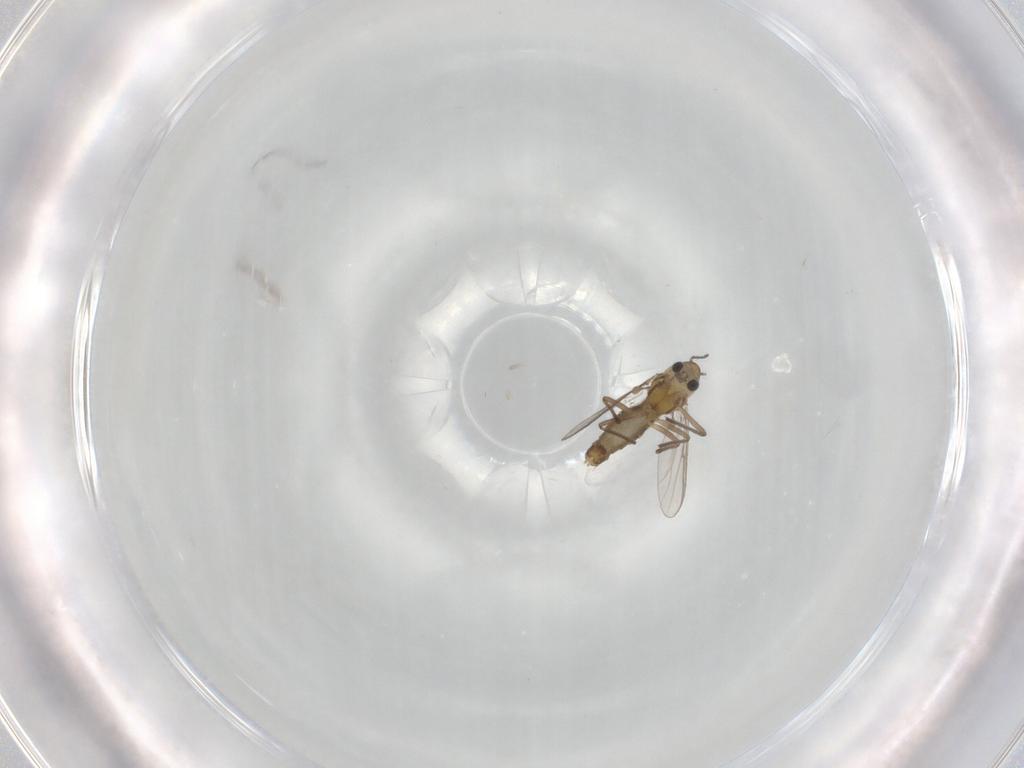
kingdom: Animalia
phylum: Arthropoda
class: Insecta
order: Diptera
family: Chironomidae
